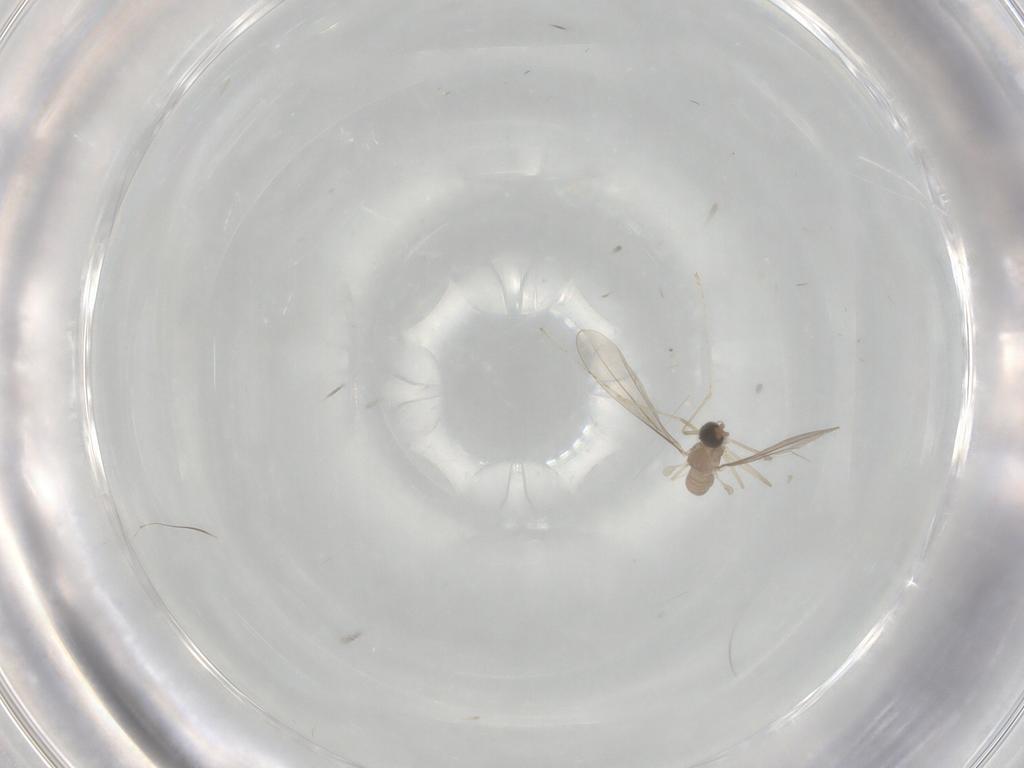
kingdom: Animalia
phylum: Arthropoda
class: Insecta
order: Diptera
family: Cecidomyiidae
